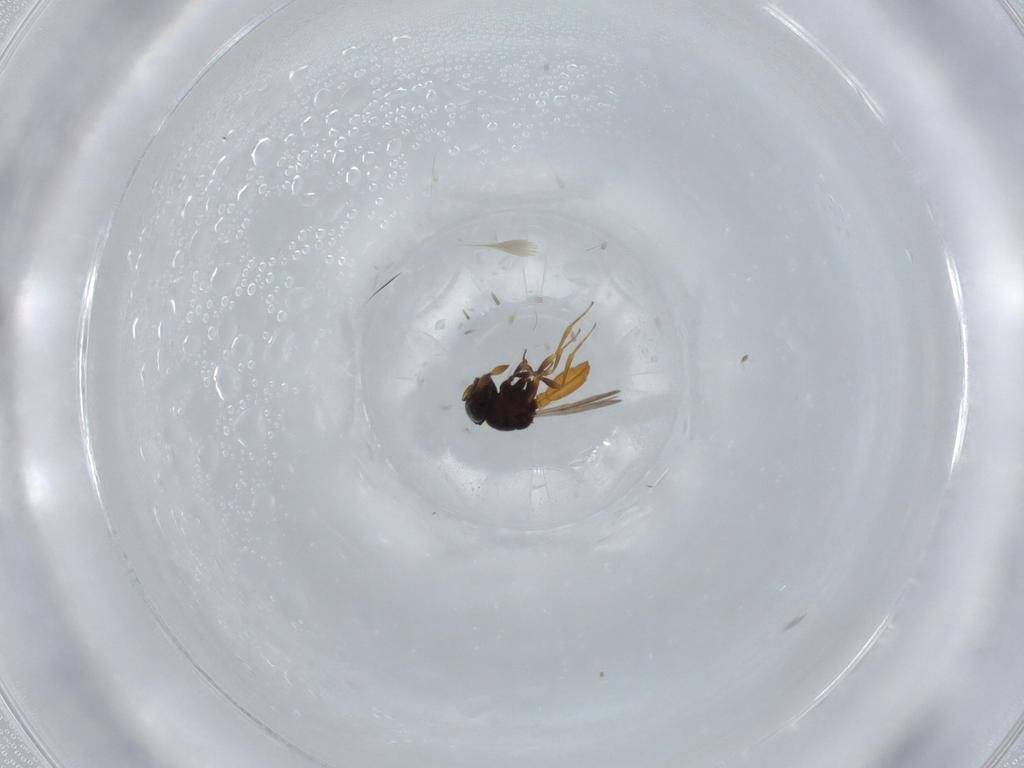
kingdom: Animalia
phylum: Arthropoda
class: Insecta
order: Hymenoptera
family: Scelionidae
